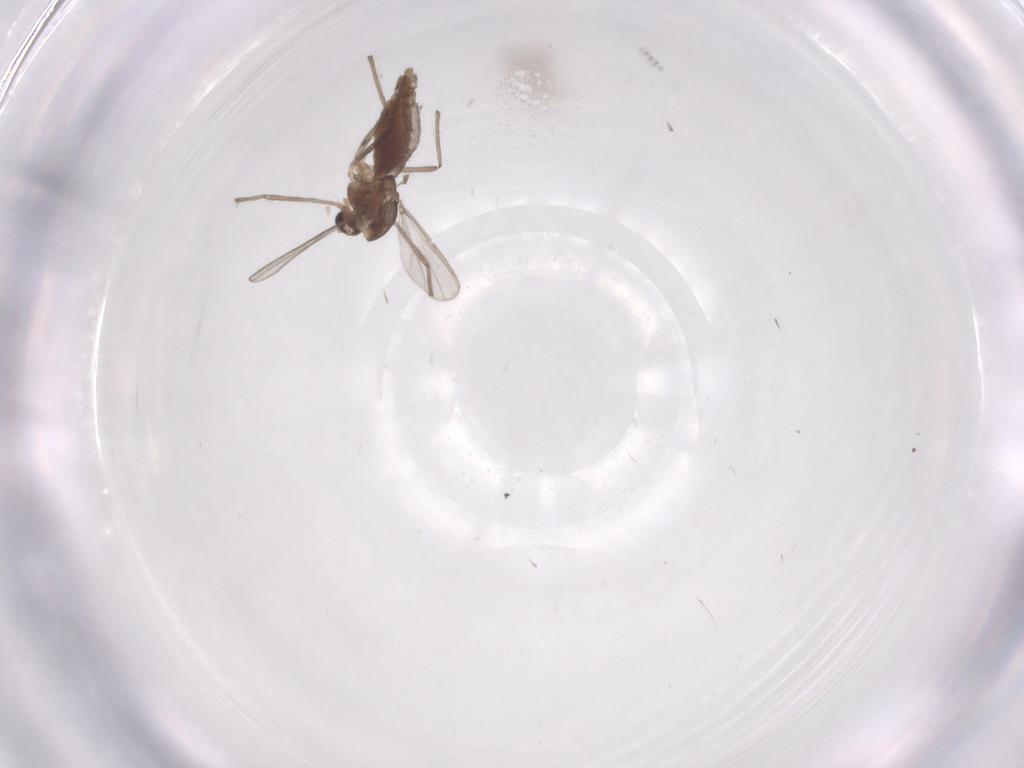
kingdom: Animalia
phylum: Arthropoda
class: Insecta
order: Diptera
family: Chironomidae
